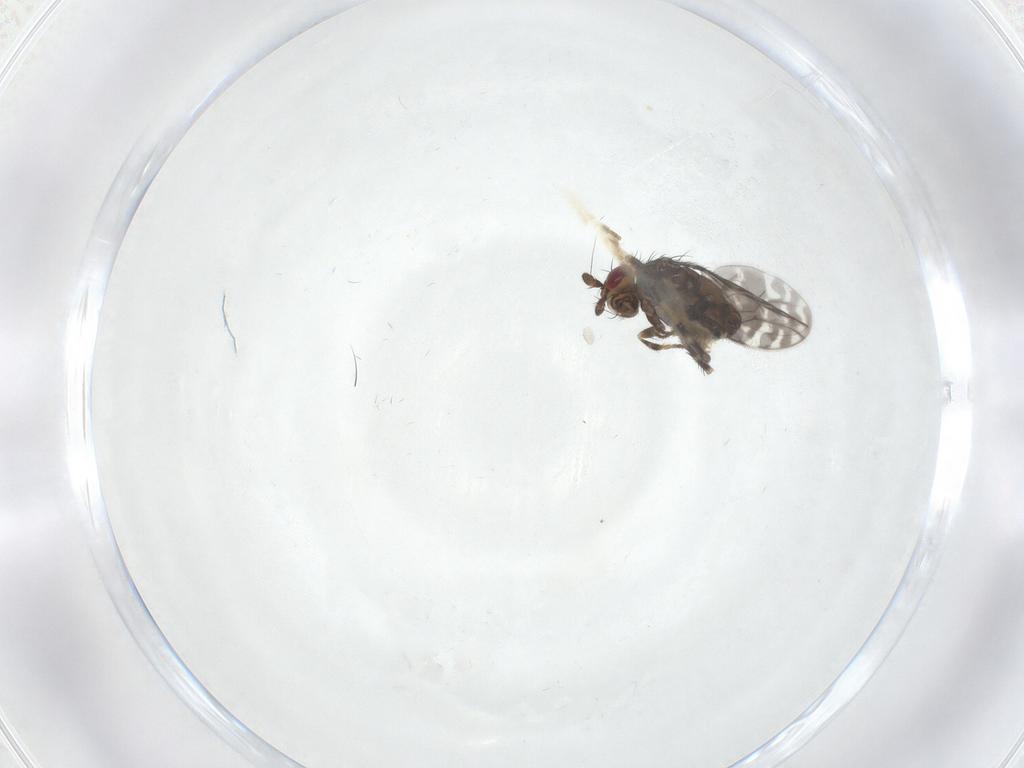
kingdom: Animalia
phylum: Arthropoda
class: Insecta
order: Diptera
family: Sphaeroceridae
